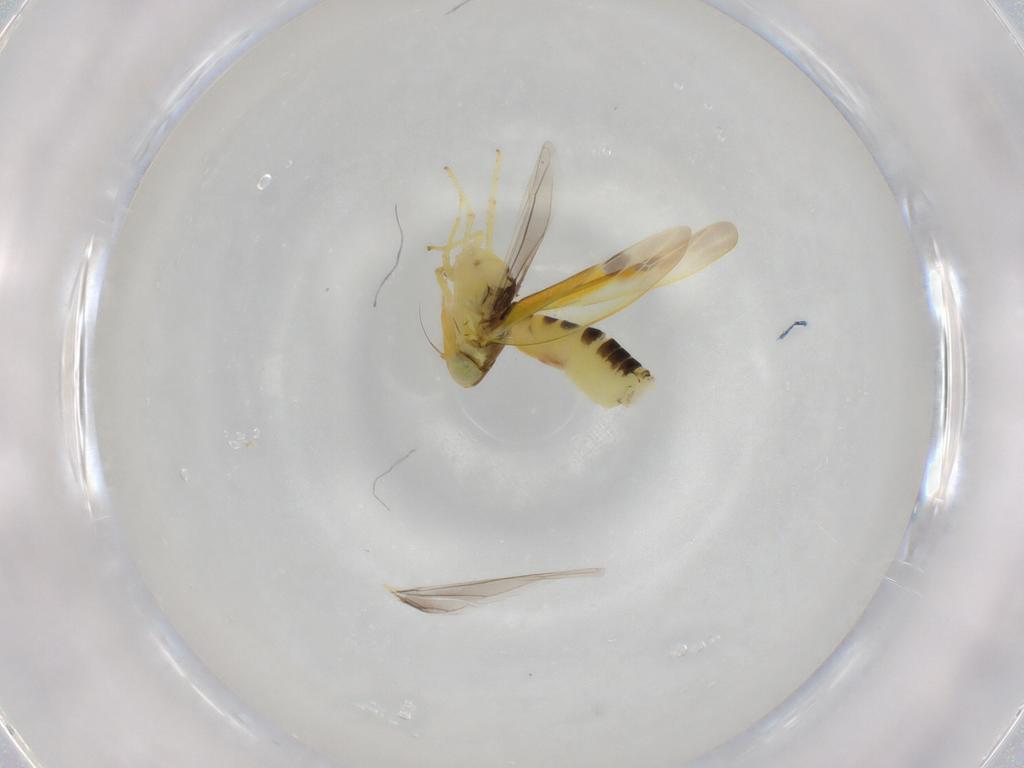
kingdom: Animalia
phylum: Arthropoda
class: Insecta
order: Hemiptera
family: Cicadellidae
